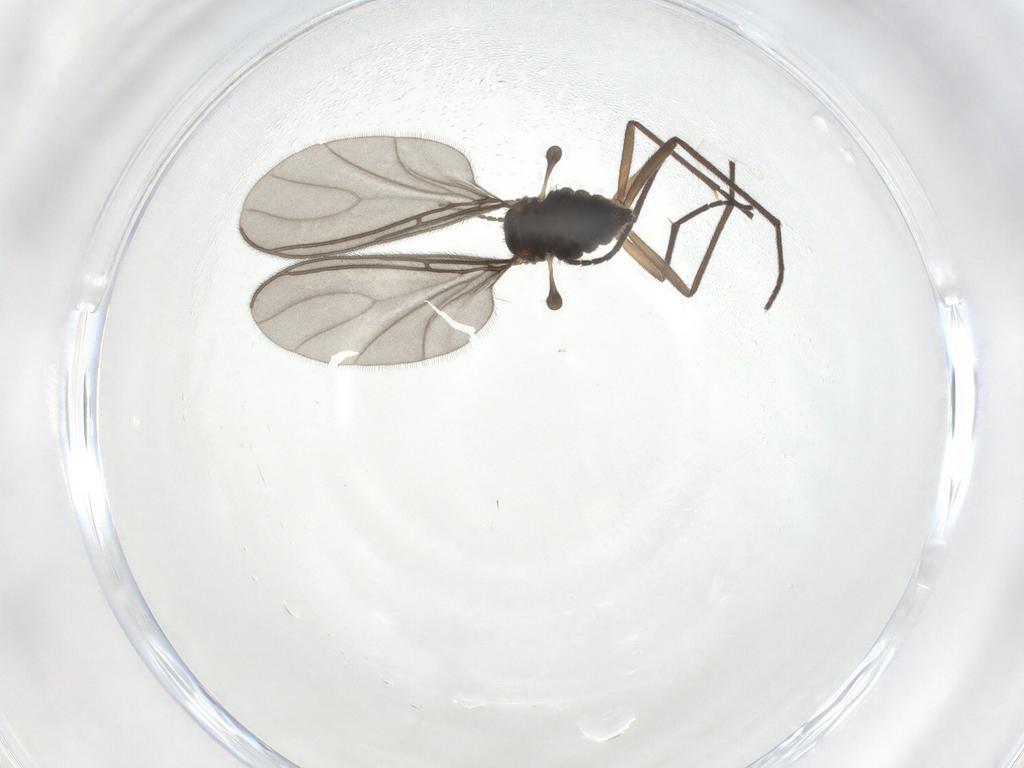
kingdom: Animalia
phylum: Arthropoda
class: Insecta
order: Diptera
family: Sciaridae
